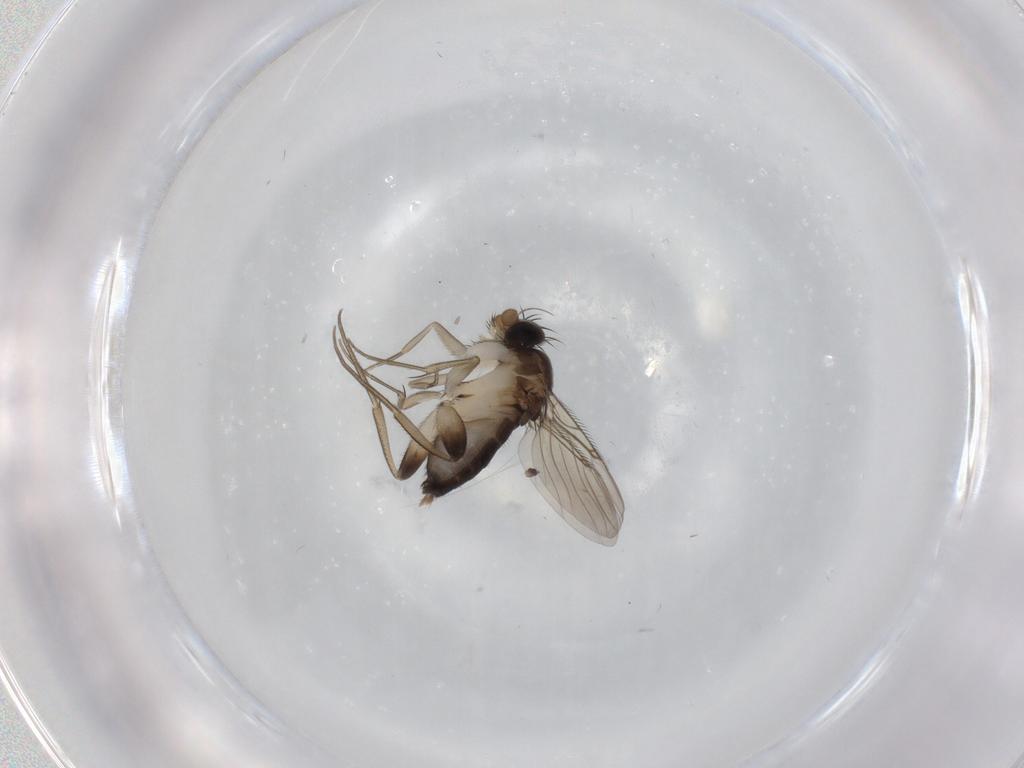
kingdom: Animalia
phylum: Arthropoda
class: Insecta
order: Diptera
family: Phoridae
